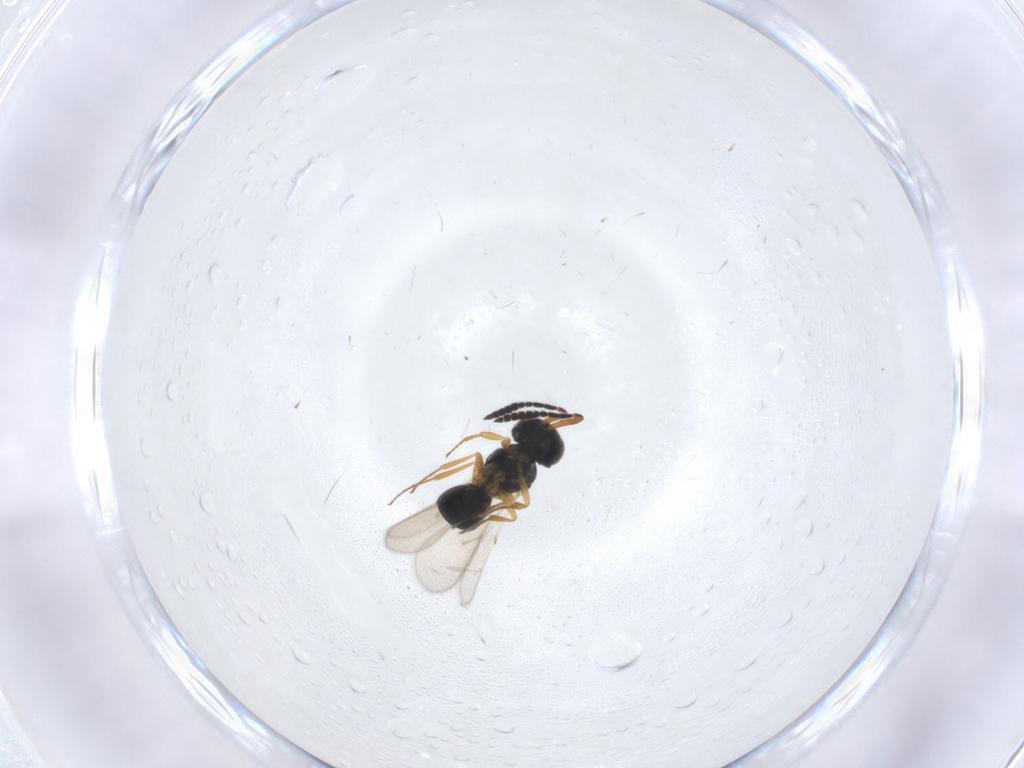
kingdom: Animalia
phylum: Arthropoda
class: Insecta
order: Hymenoptera
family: Scelionidae
